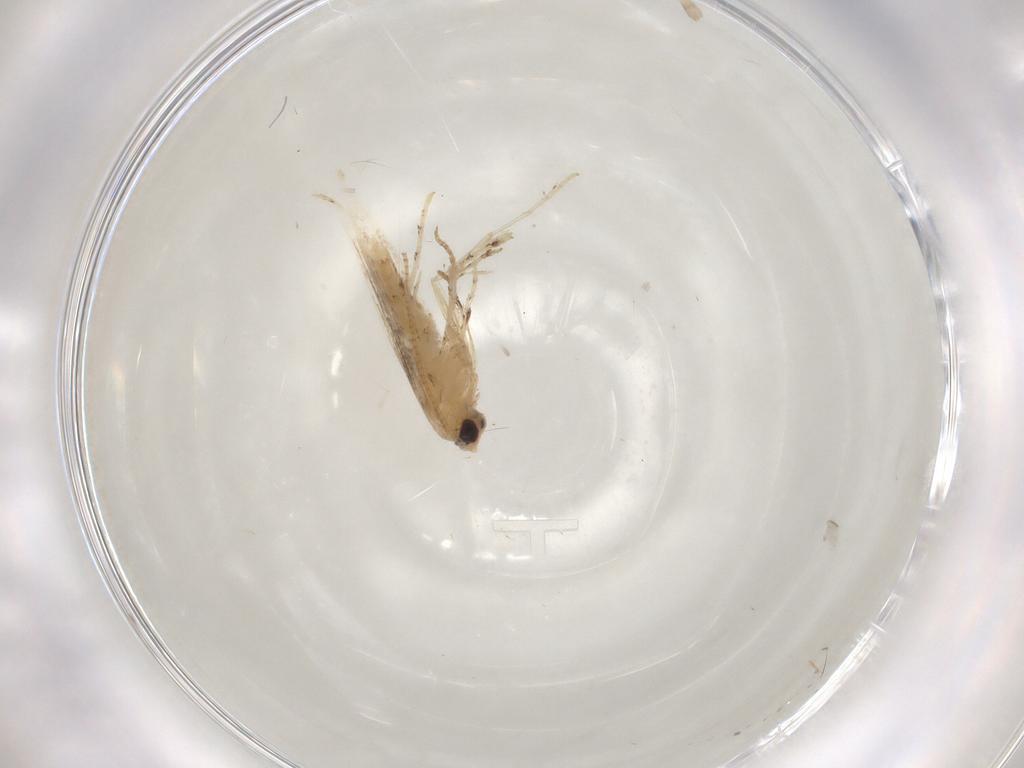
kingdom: Animalia
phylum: Arthropoda
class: Insecta
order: Lepidoptera
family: Gracillariidae
